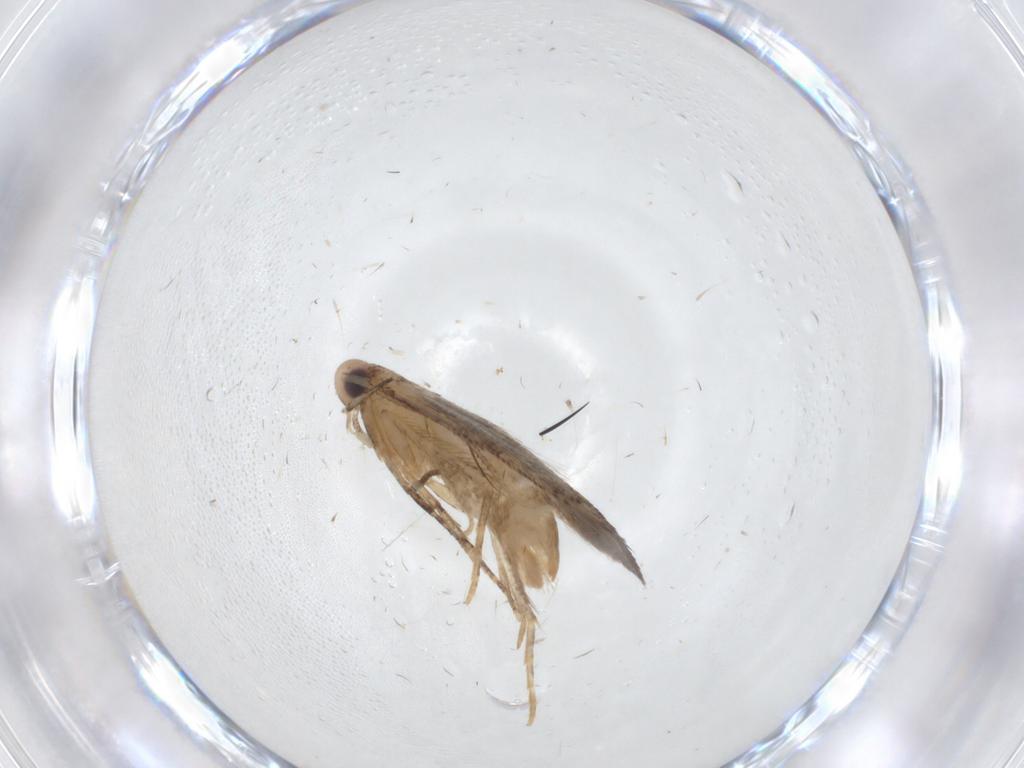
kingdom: Animalia
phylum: Arthropoda
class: Insecta
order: Lepidoptera
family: Cosmopterigidae
